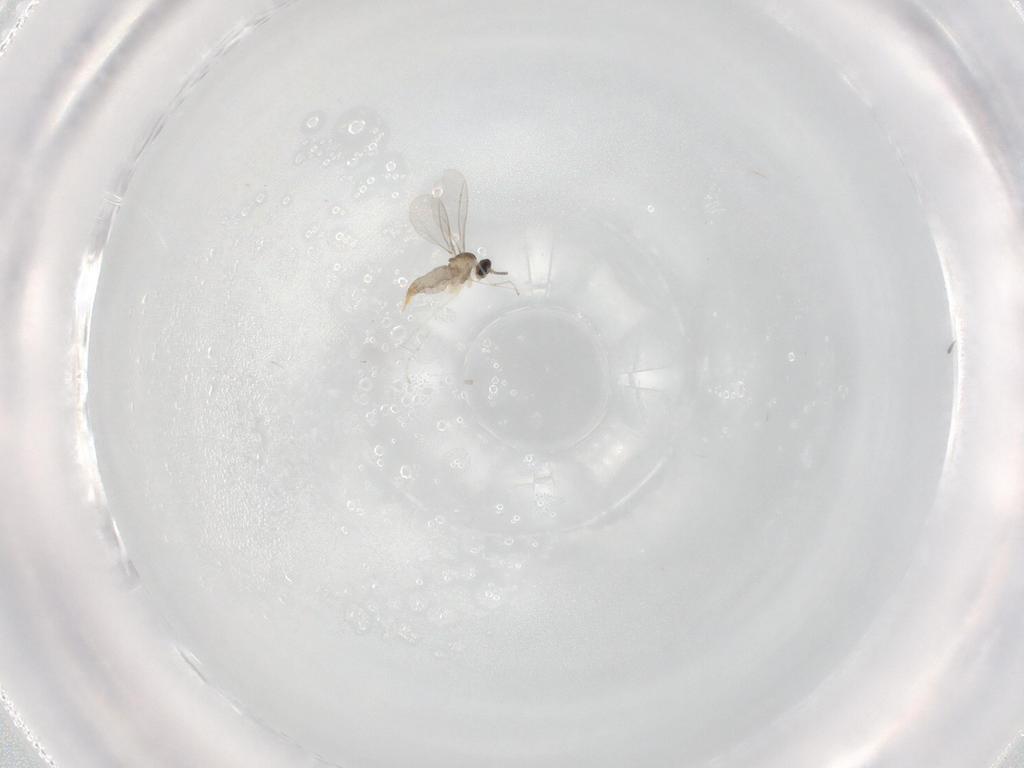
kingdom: Animalia
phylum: Arthropoda
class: Insecta
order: Diptera
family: Cecidomyiidae
